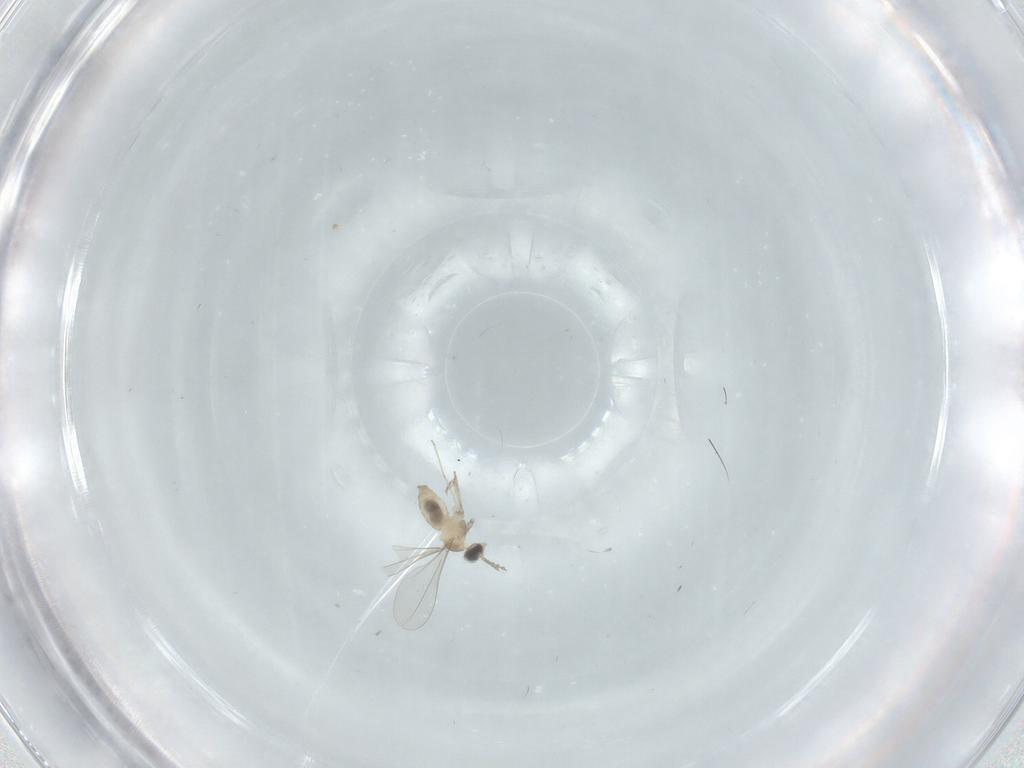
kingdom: Animalia
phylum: Arthropoda
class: Insecta
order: Diptera
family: Cecidomyiidae
